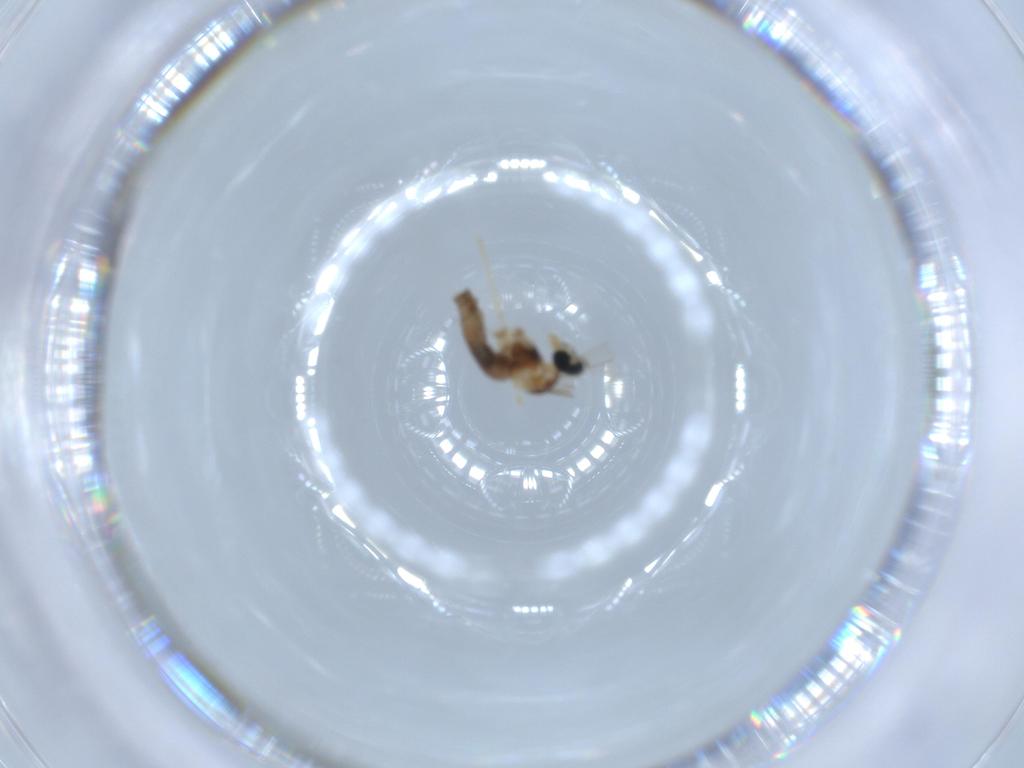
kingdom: Animalia
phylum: Arthropoda
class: Insecta
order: Diptera
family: Cecidomyiidae
